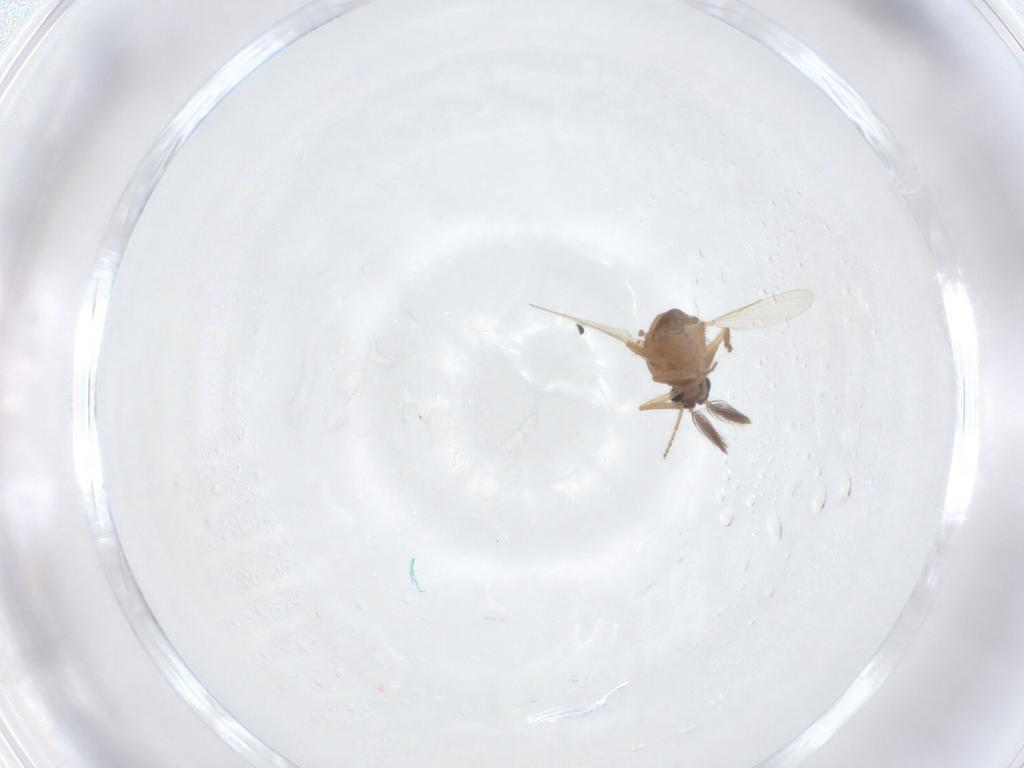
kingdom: Animalia
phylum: Arthropoda
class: Insecta
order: Diptera
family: Ceratopogonidae
